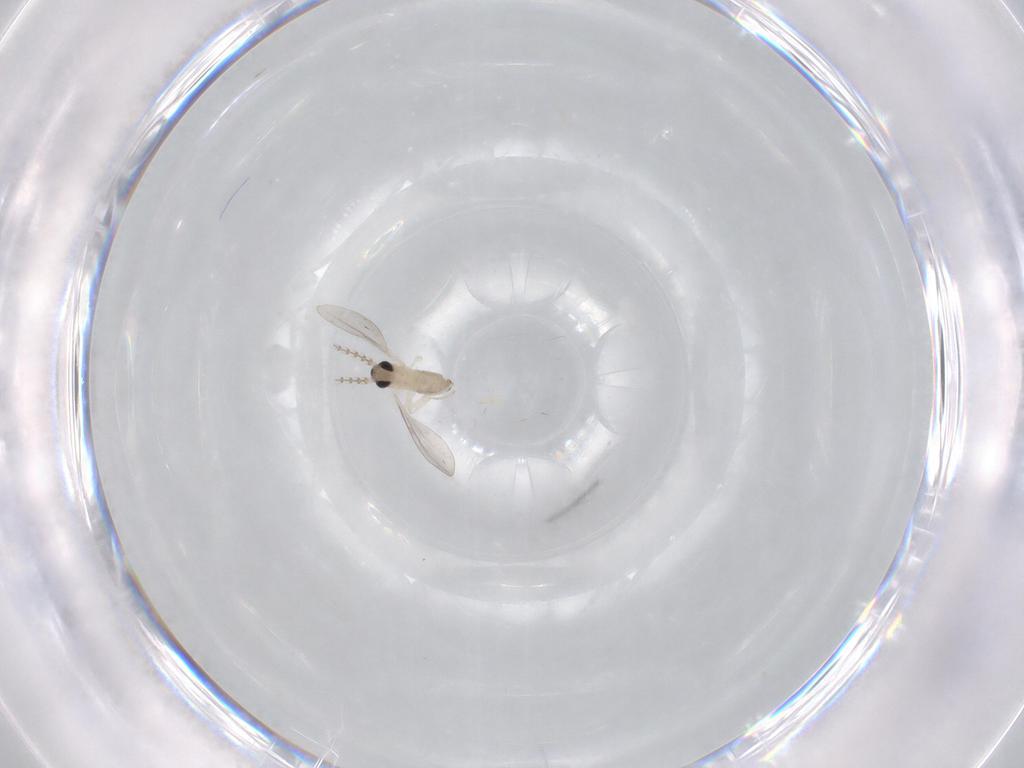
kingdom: Animalia
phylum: Arthropoda
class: Insecta
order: Diptera
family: Cecidomyiidae
